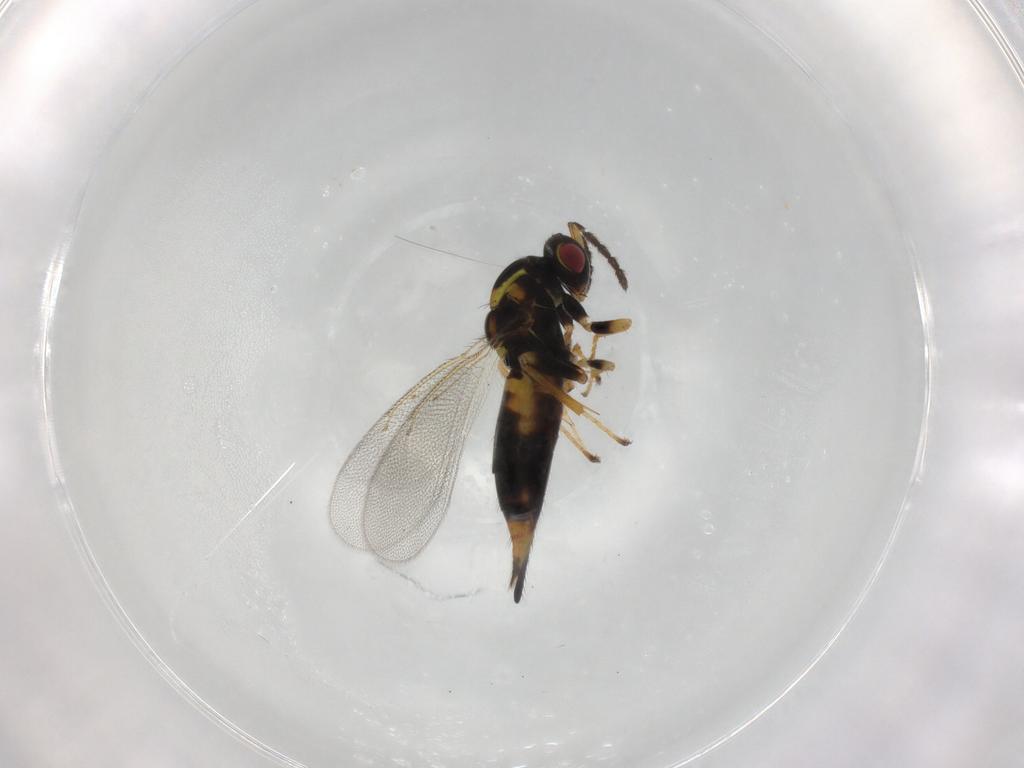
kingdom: Animalia
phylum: Arthropoda
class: Insecta
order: Hymenoptera
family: Eulophidae
